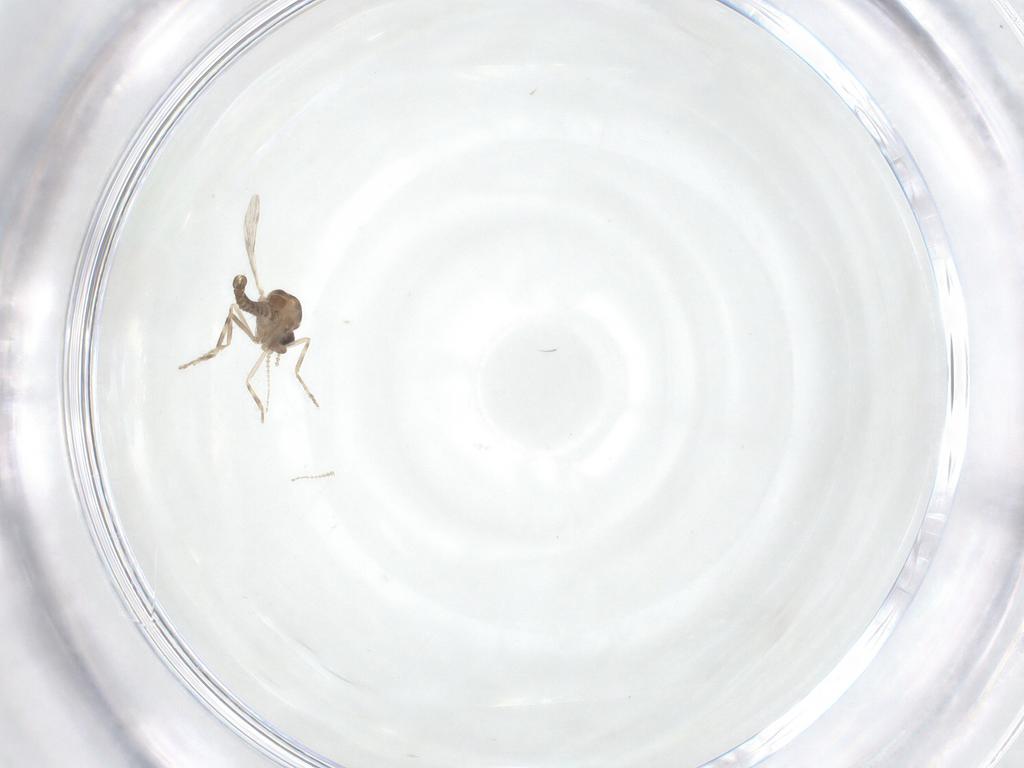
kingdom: Animalia
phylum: Arthropoda
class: Insecta
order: Diptera
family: Ceratopogonidae
